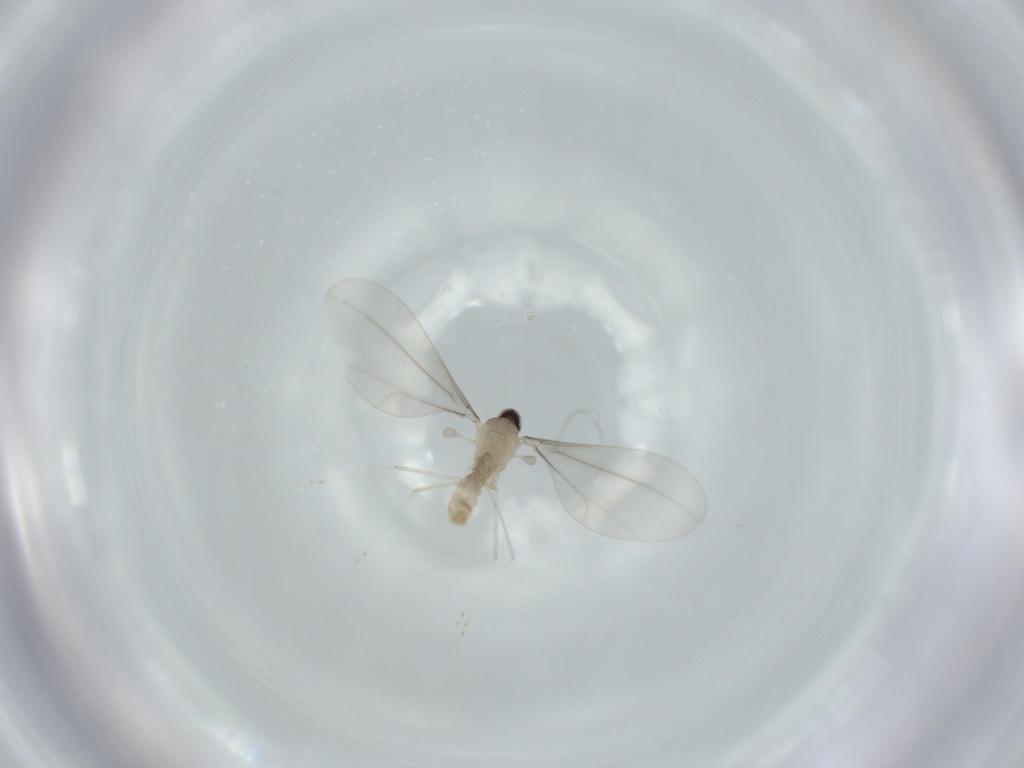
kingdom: Animalia
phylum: Arthropoda
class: Insecta
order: Diptera
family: Cecidomyiidae
